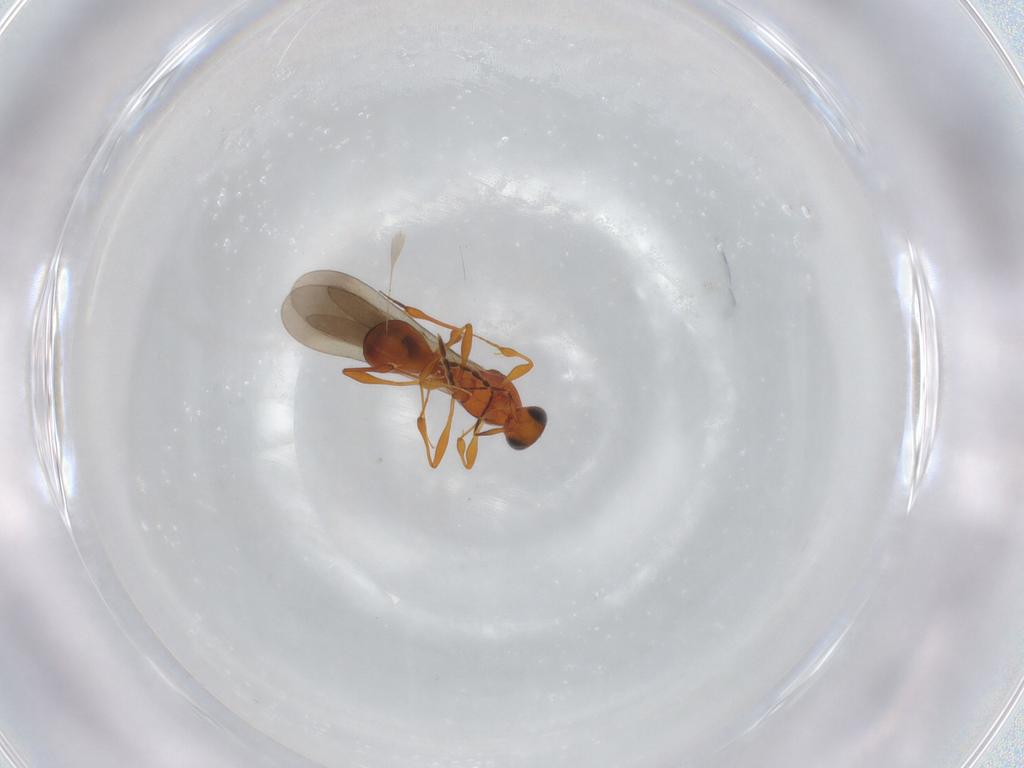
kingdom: Animalia
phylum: Arthropoda
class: Insecta
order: Hymenoptera
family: Platygastridae
